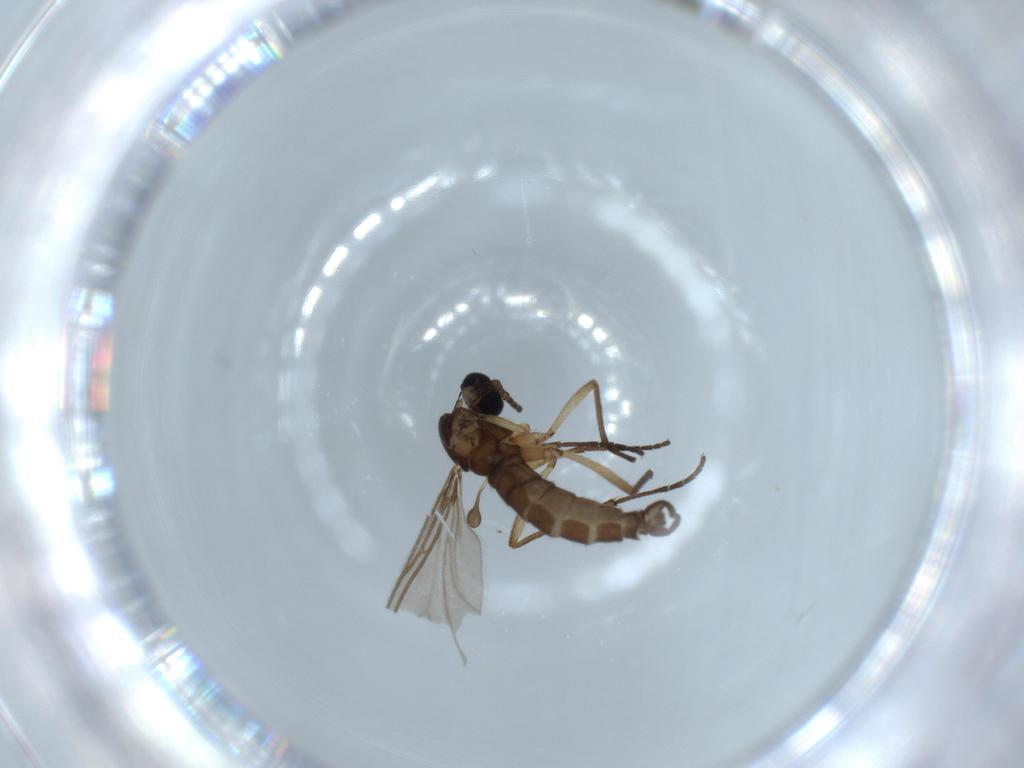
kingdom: Animalia
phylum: Arthropoda
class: Insecta
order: Diptera
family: Sciaridae
